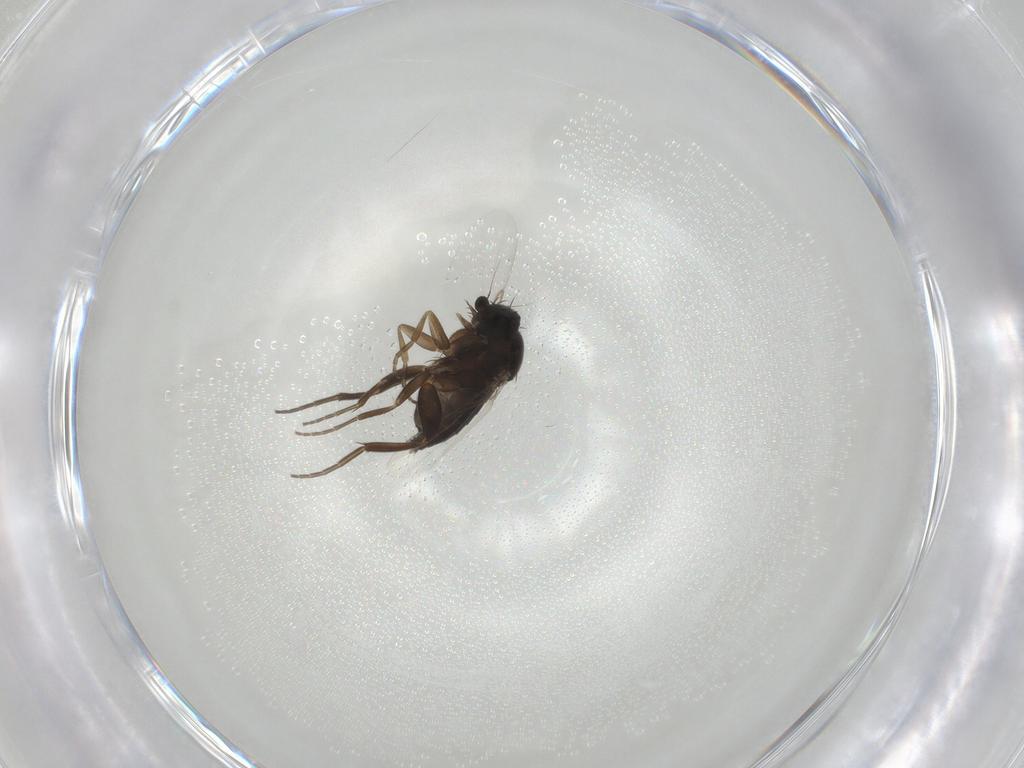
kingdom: Animalia
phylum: Arthropoda
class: Insecta
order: Diptera
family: Phoridae
